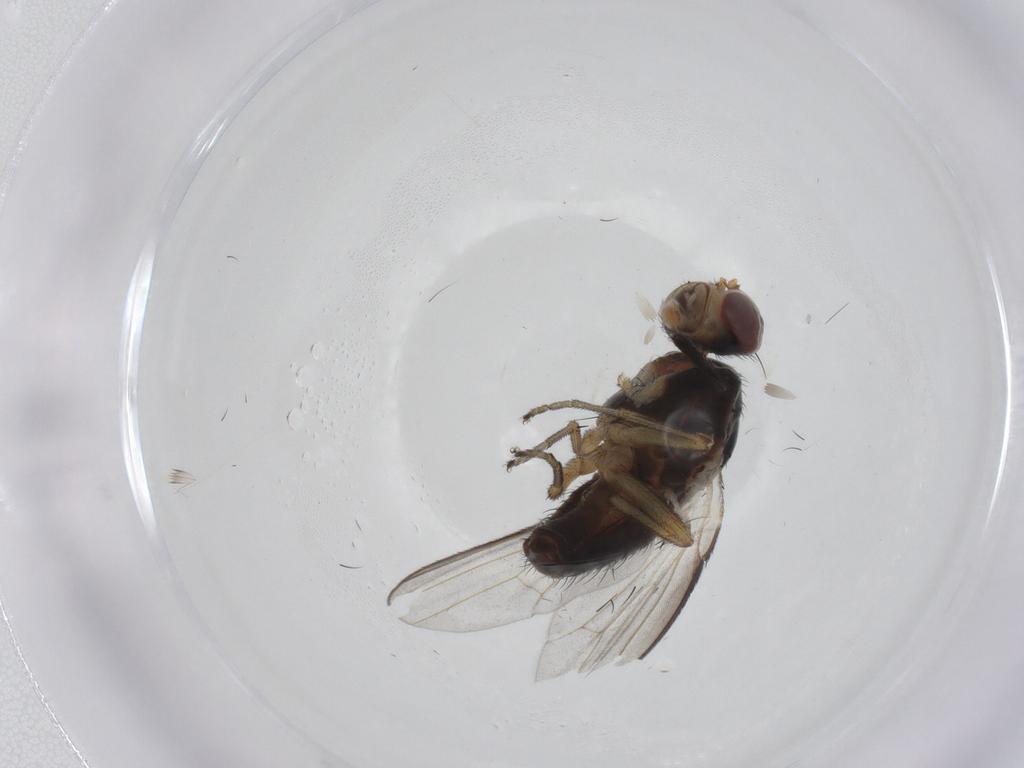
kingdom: Animalia
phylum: Arthropoda
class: Insecta
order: Diptera
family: Heleomyzidae
